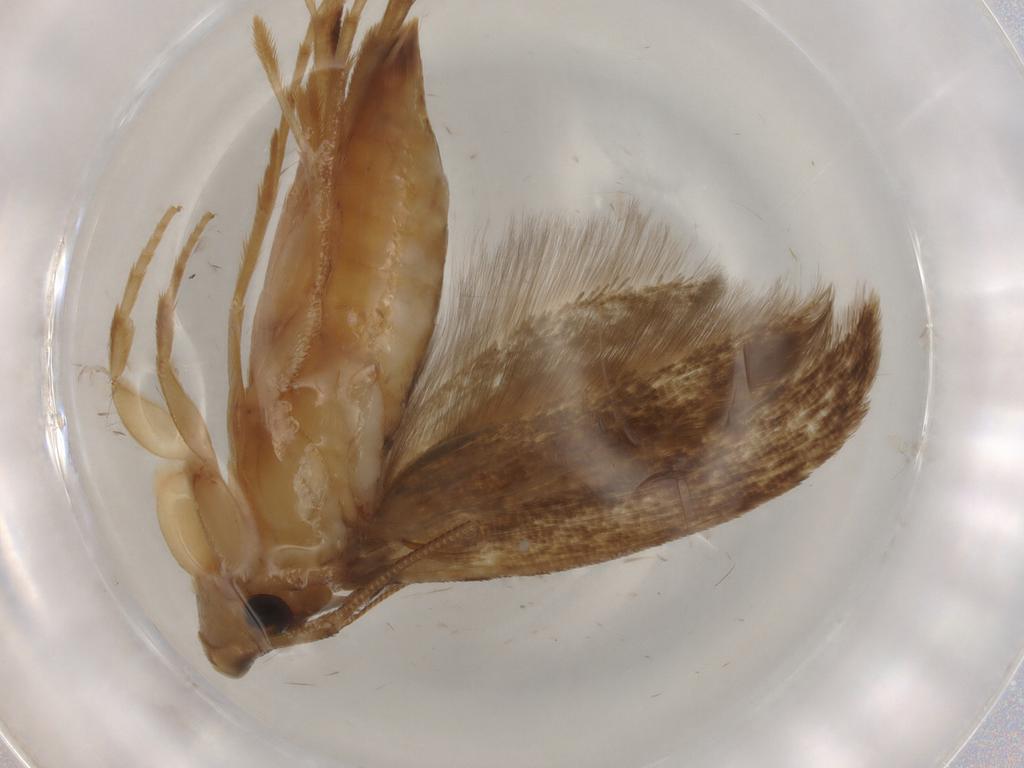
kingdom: Animalia
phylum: Arthropoda
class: Insecta
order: Lepidoptera
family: Tineidae
